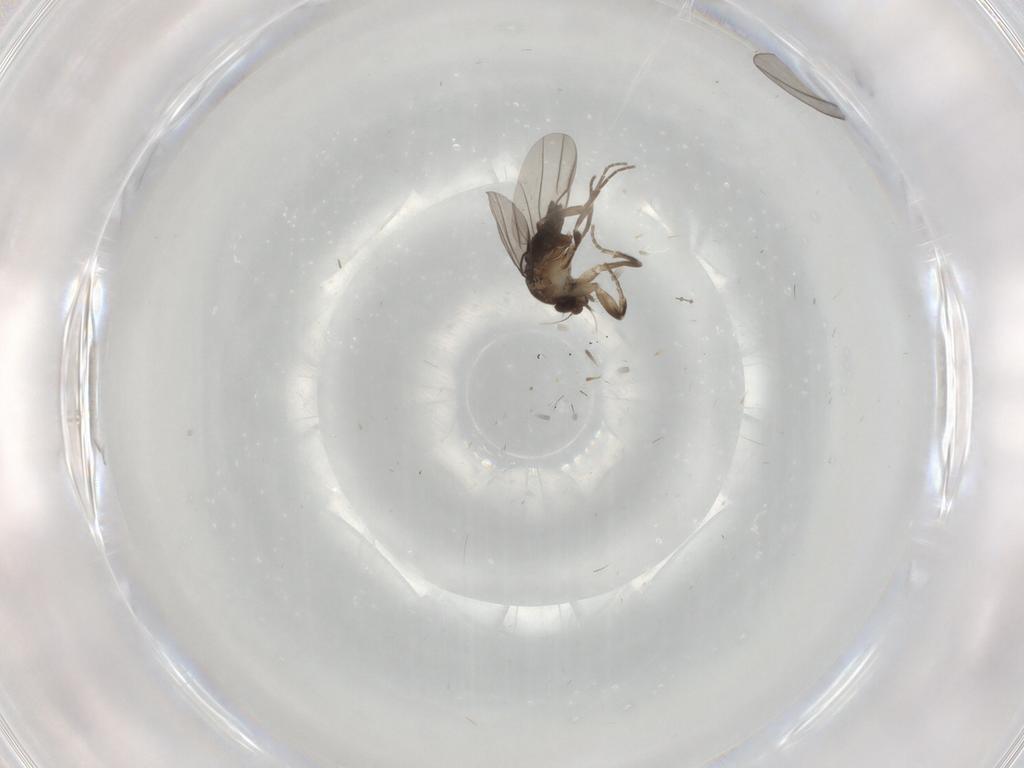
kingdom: Animalia
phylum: Arthropoda
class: Insecta
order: Diptera
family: Phoridae
